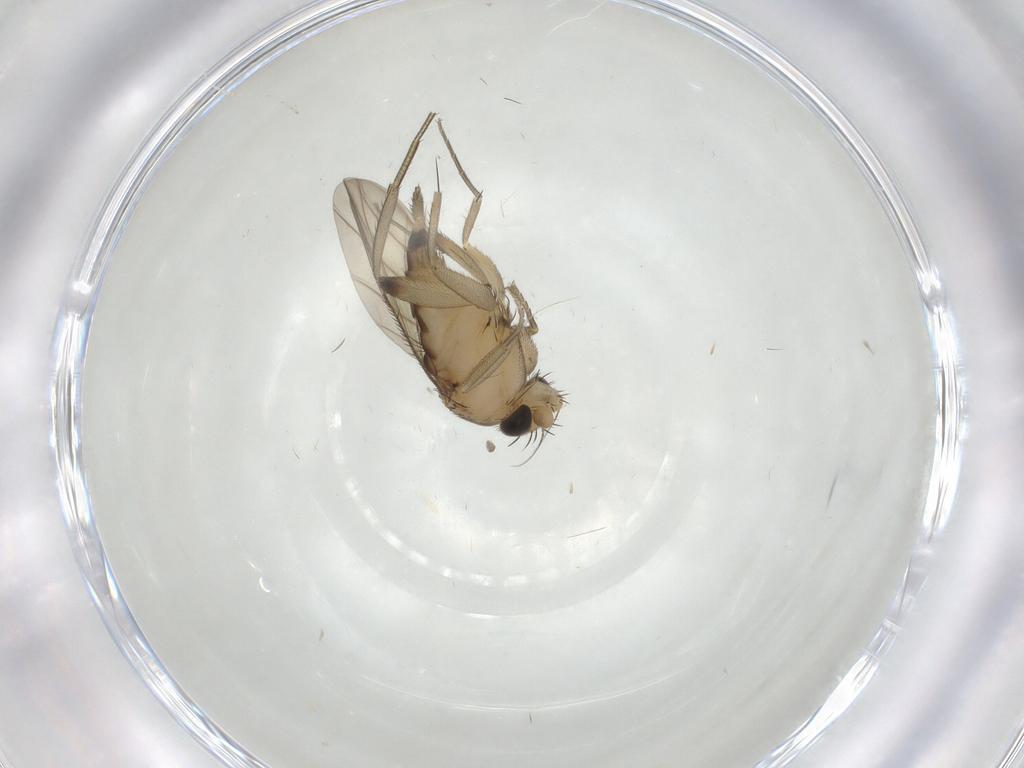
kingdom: Animalia
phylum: Arthropoda
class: Insecta
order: Diptera
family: Phoridae
